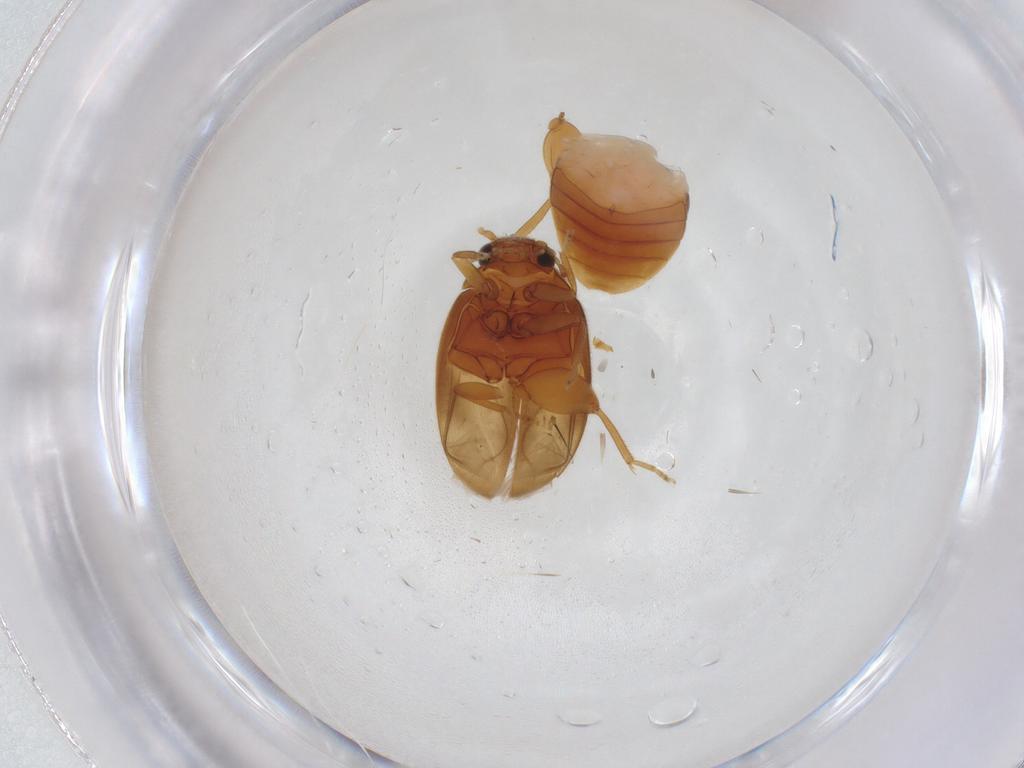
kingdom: Animalia
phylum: Arthropoda
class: Insecta
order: Coleoptera
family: Scirtidae
